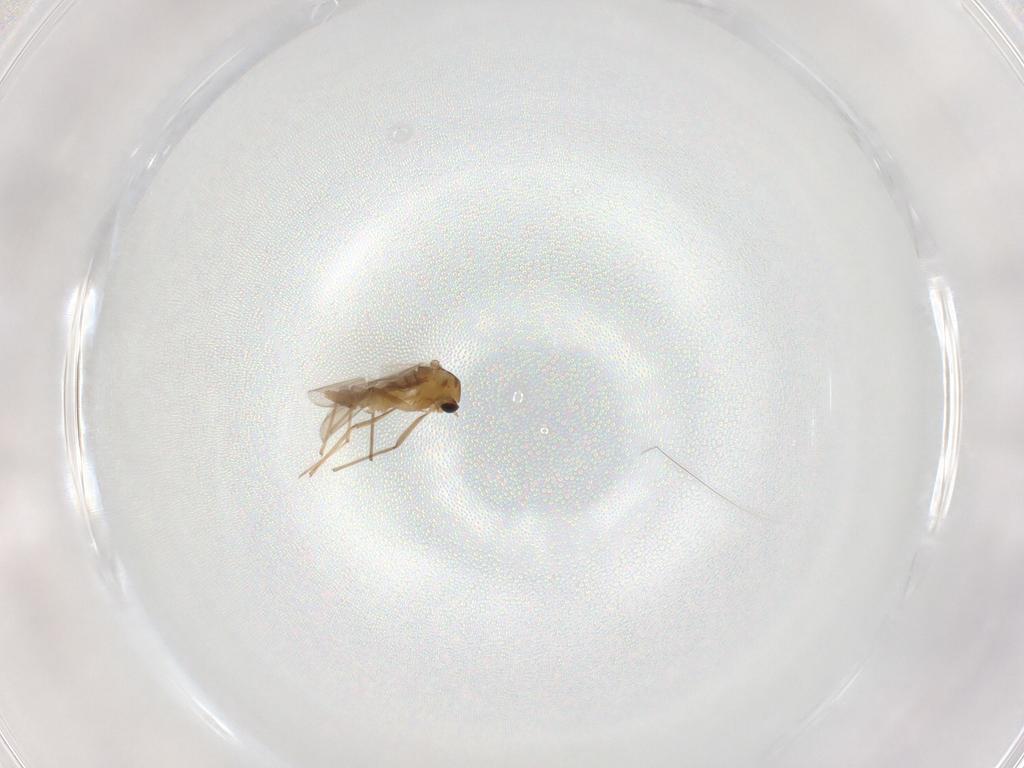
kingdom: Animalia
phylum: Arthropoda
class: Insecta
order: Diptera
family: Chironomidae
